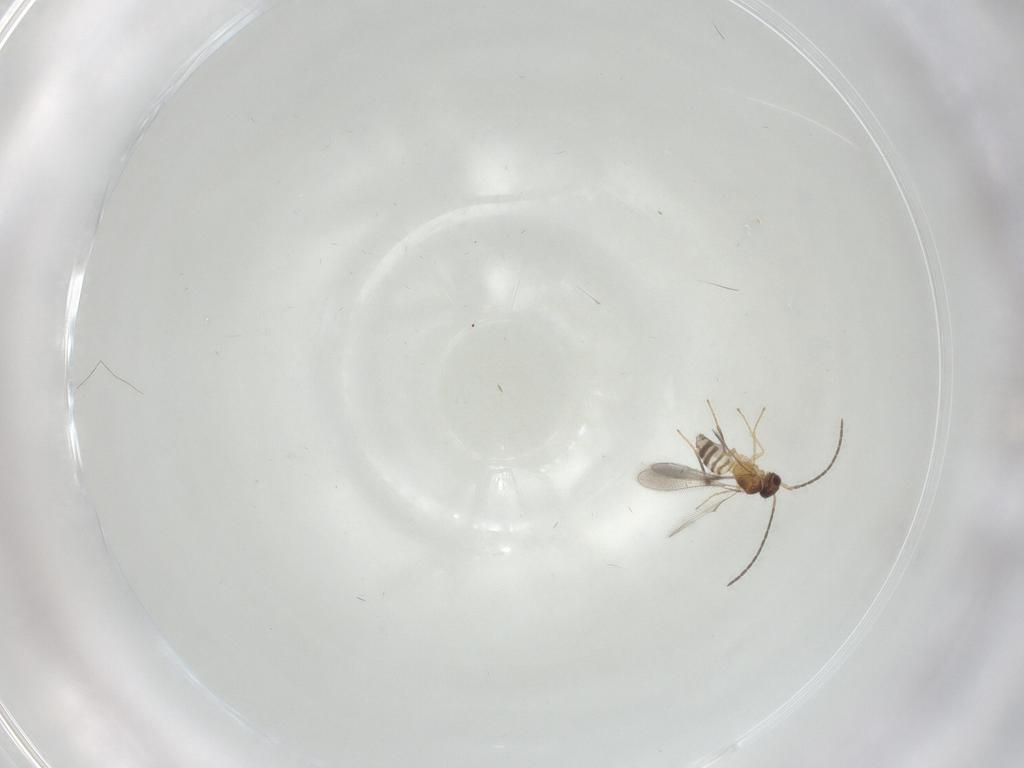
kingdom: Animalia
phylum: Arthropoda
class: Insecta
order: Hymenoptera
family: Mymaridae
